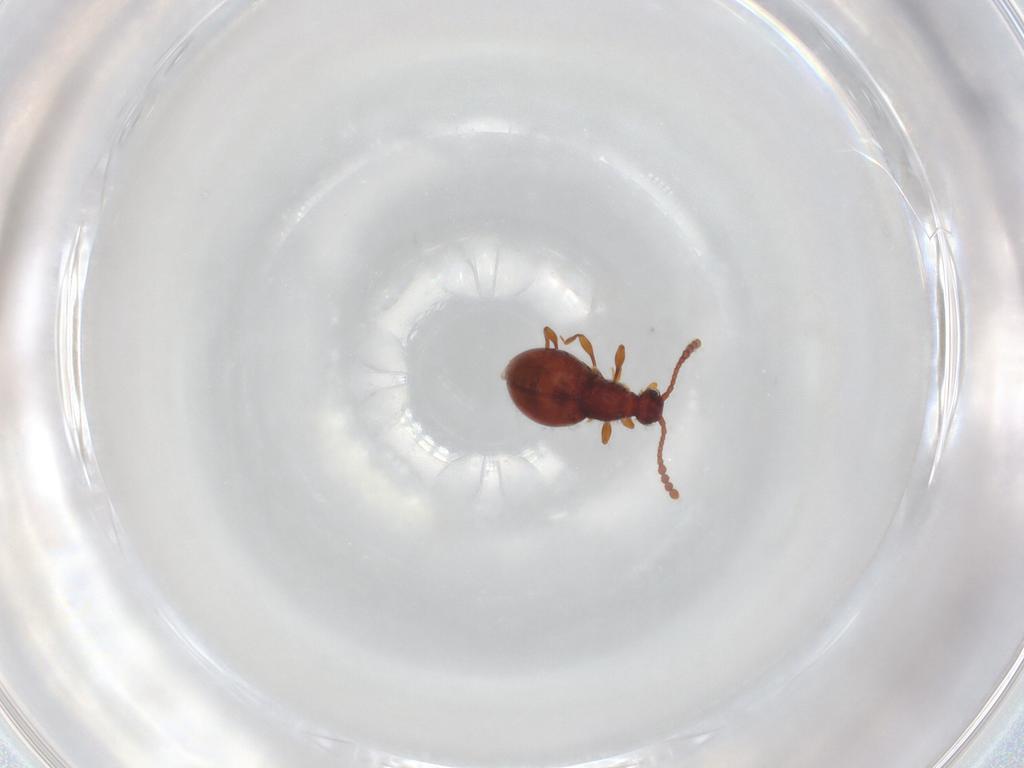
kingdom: Animalia
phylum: Arthropoda
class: Insecta
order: Coleoptera
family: Staphylinidae
